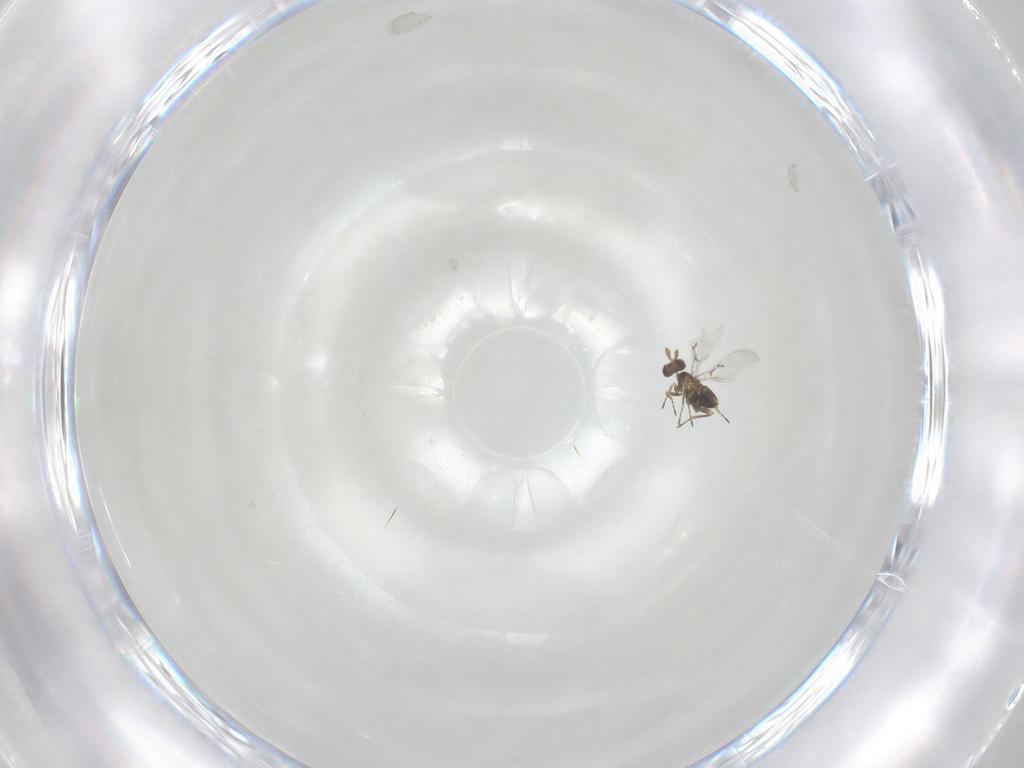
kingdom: Animalia
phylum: Arthropoda
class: Insecta
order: Hymenoptera
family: Trichogrammatidae
